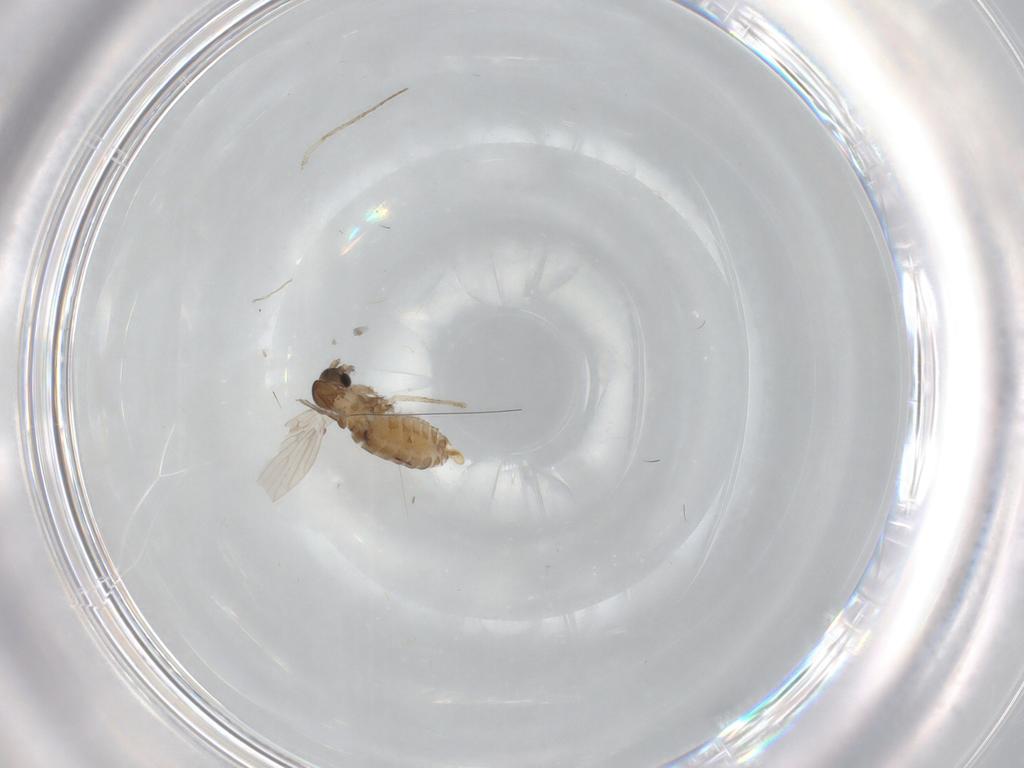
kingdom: Animalia
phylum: Arthropoda
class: Insecta
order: Diptera
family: Psychodidae
